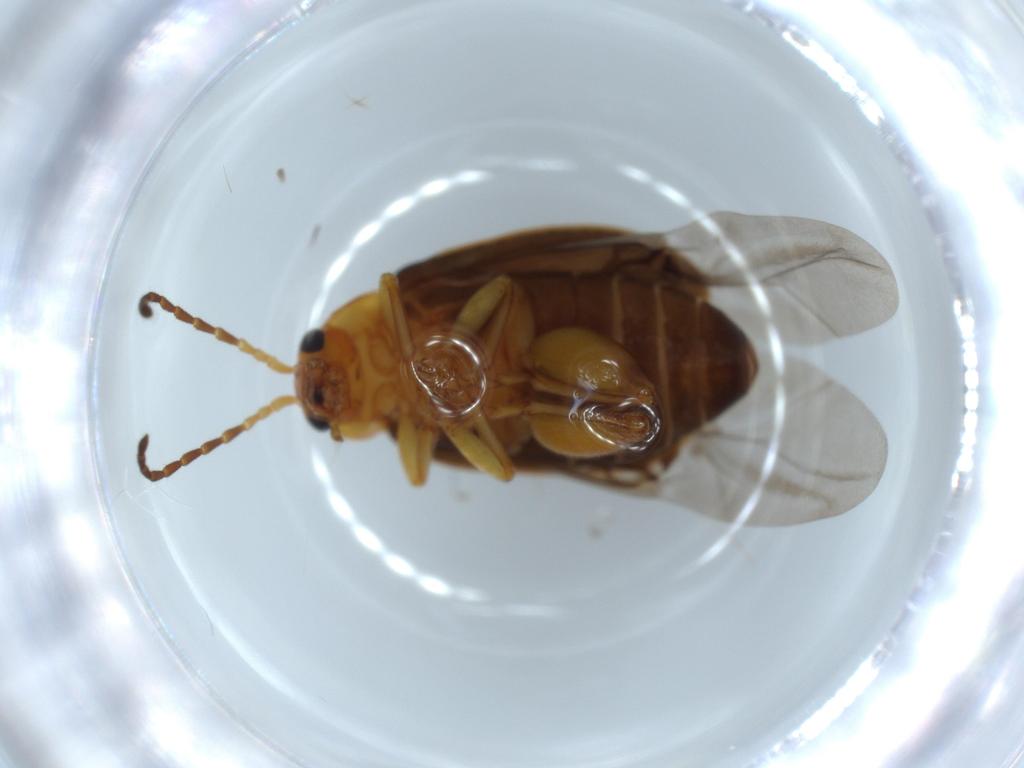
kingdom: Animalia
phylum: Arthropoda
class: Insecta
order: Coleoptera
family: Chrysomelidae
